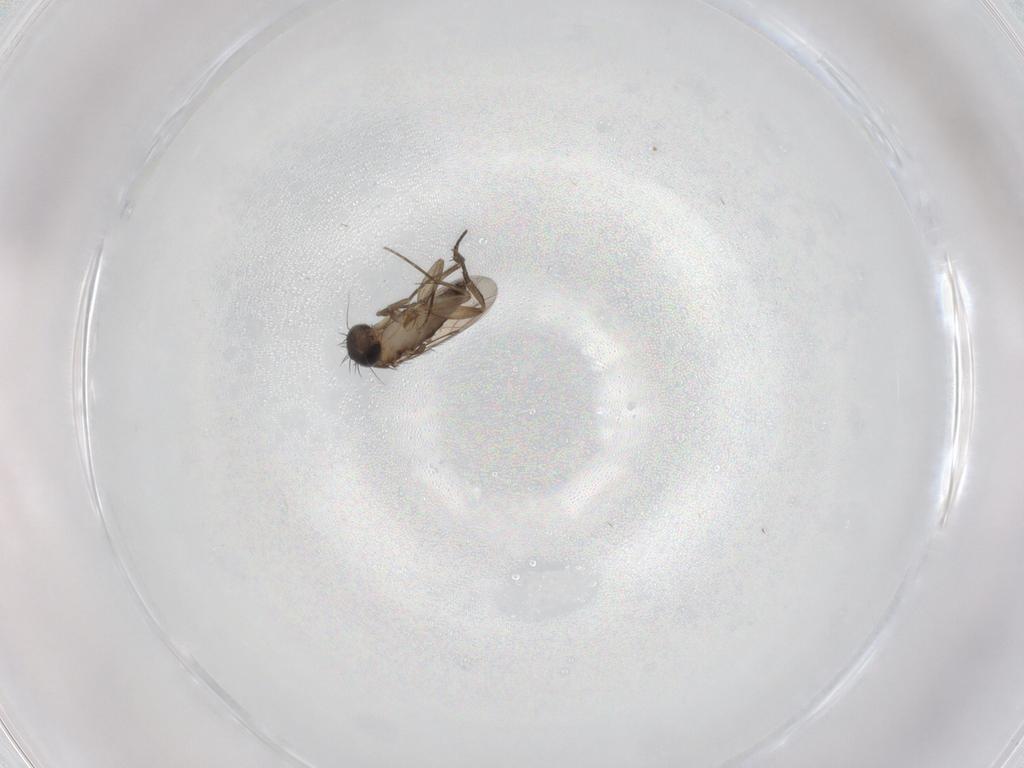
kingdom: Animalia
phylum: Arthropoda
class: Insecta
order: Diptera
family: Phoridae
